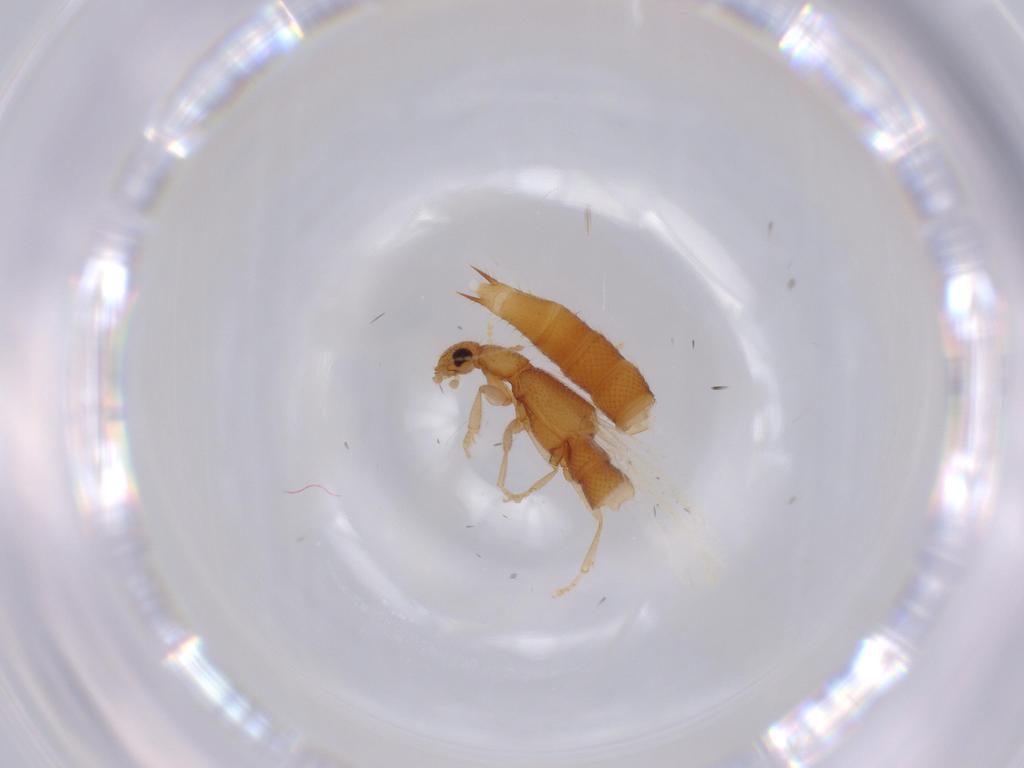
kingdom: Animalia
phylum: Arthropoda
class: Insecta
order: Coleoptera
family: Staphylinidae
